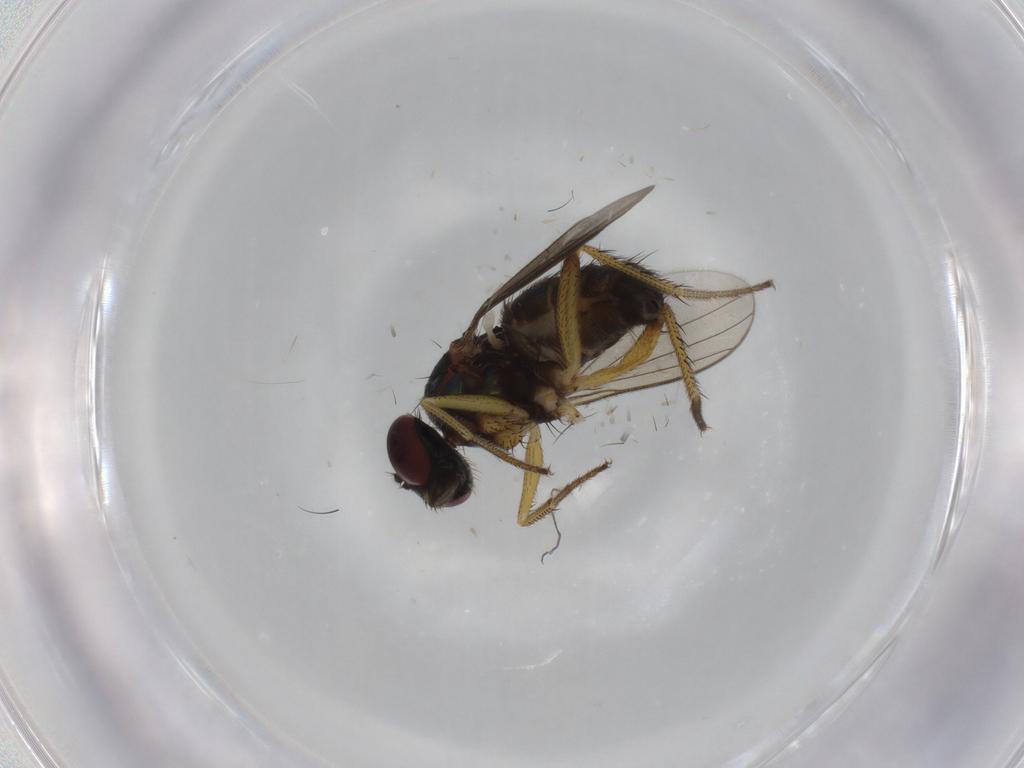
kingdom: Animalia
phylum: Arthropoda
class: Insecta
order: Diptera
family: Dolichopodidae
